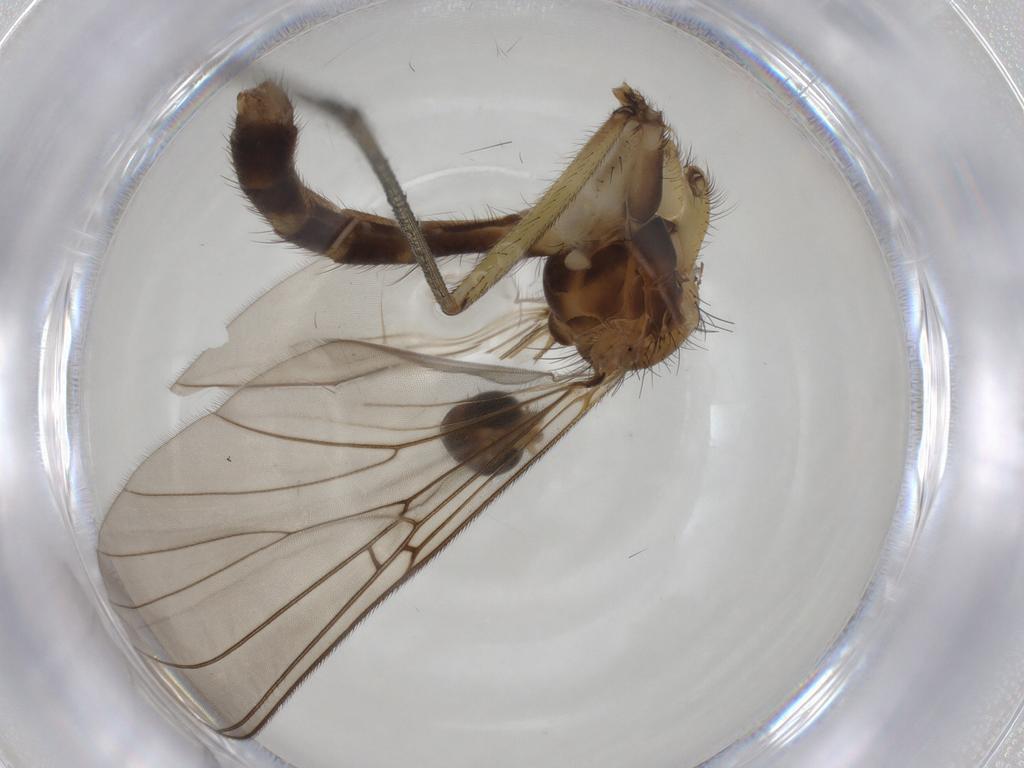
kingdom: Animalia
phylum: Arthropoda
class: Insecta
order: Diptera
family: Mycetophilidae
